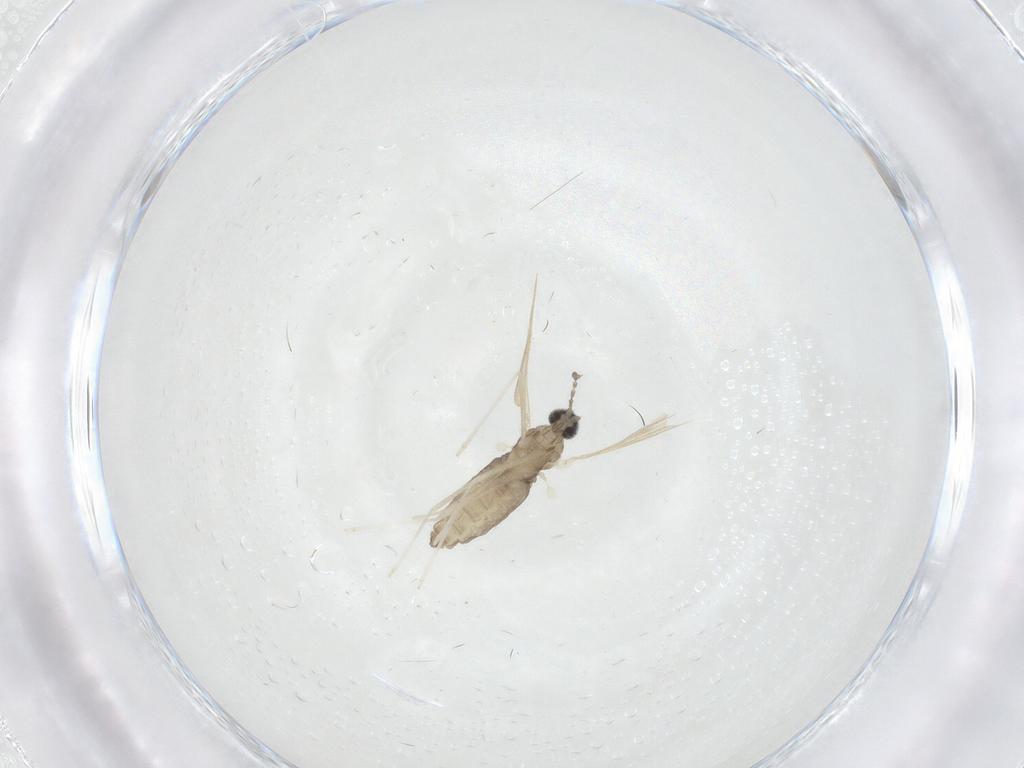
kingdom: Animalia
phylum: Arthropoda
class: Insecta
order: Diptera
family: Cecidomyiidae
